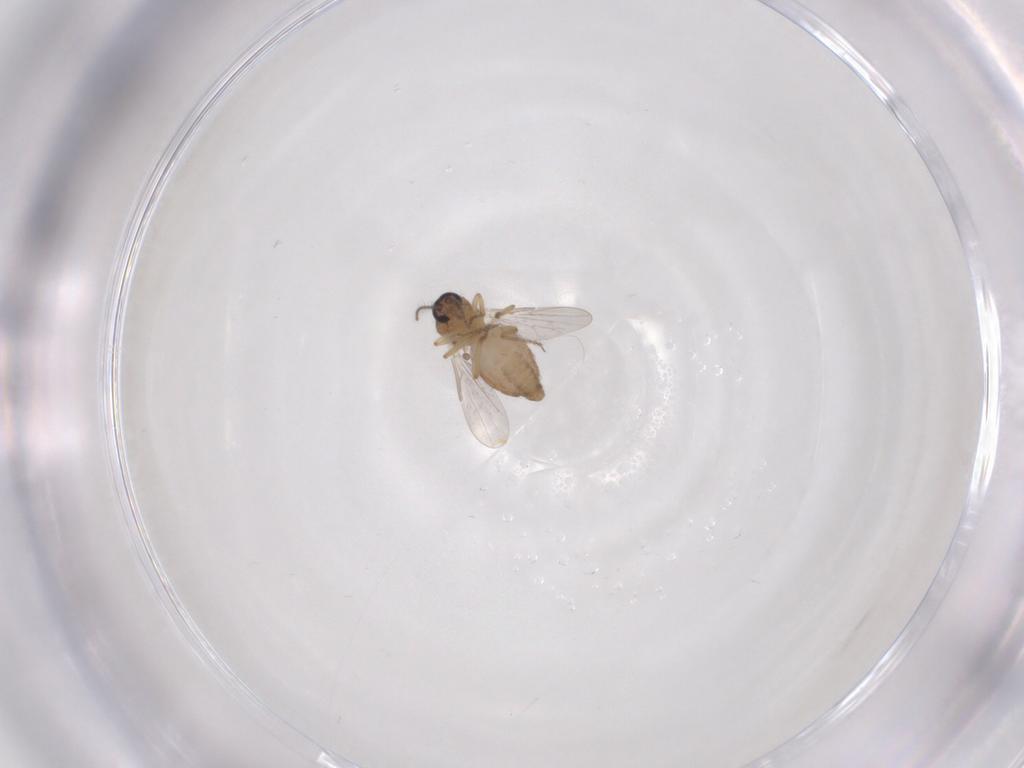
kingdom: Animalia
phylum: Arthropoda
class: Insecta
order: Diptera
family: Ceratopogonidae
